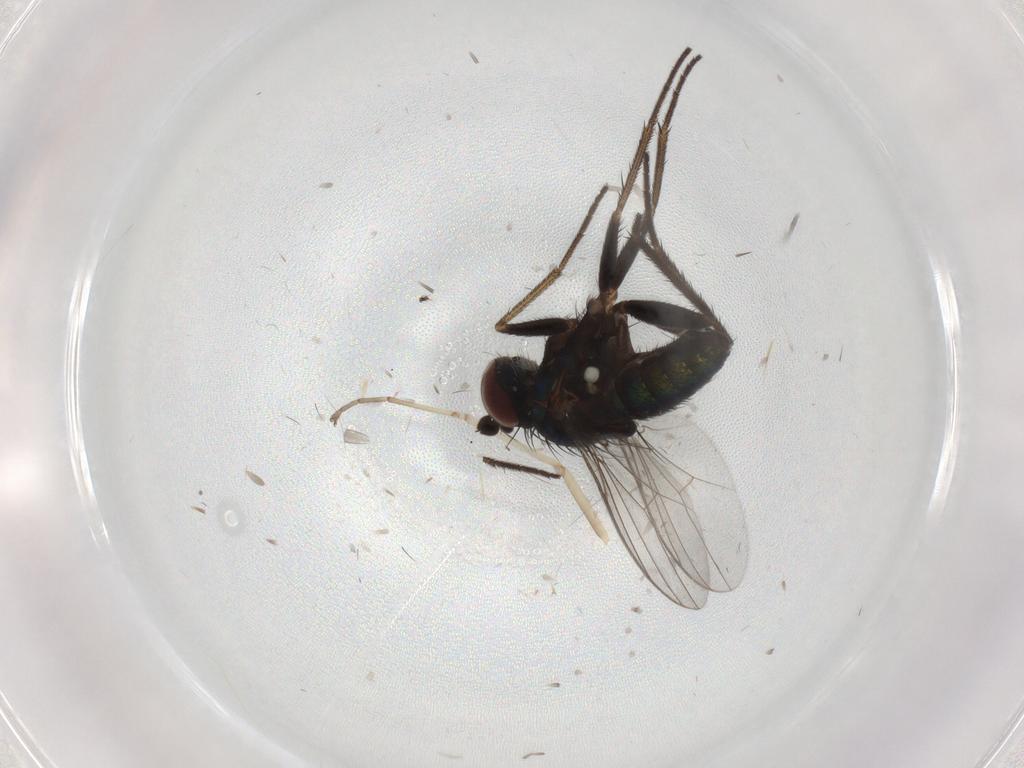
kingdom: Animalia
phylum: Arthropoda
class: Insecta
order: Diptera
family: Dolichopodidae
